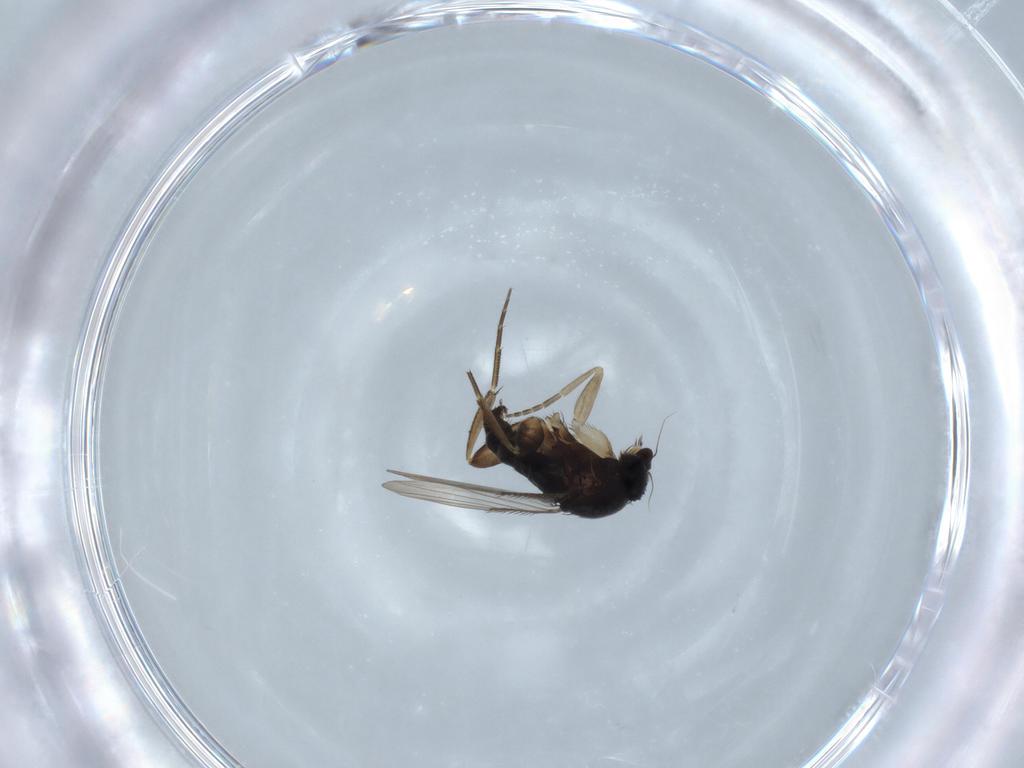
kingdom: Animalia
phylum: Arthropoda
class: Insecta
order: Diptera
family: Phoridae
